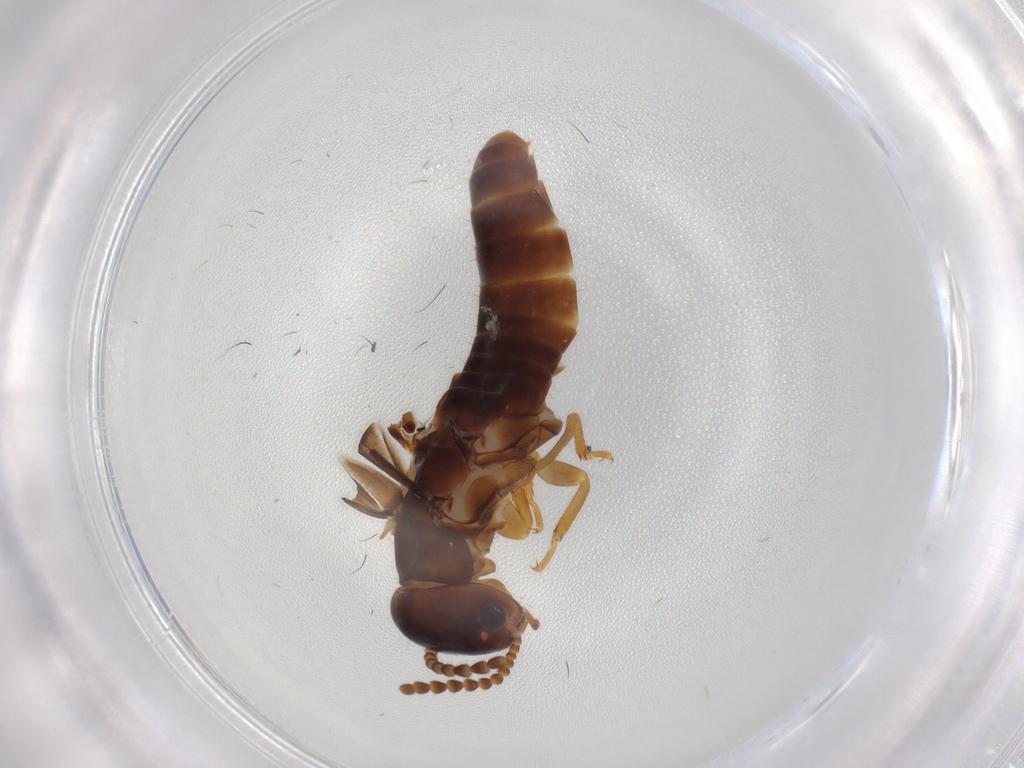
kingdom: Animalia
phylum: Arthropoda
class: Insecta
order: Blattodea
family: Kalotermitidae
